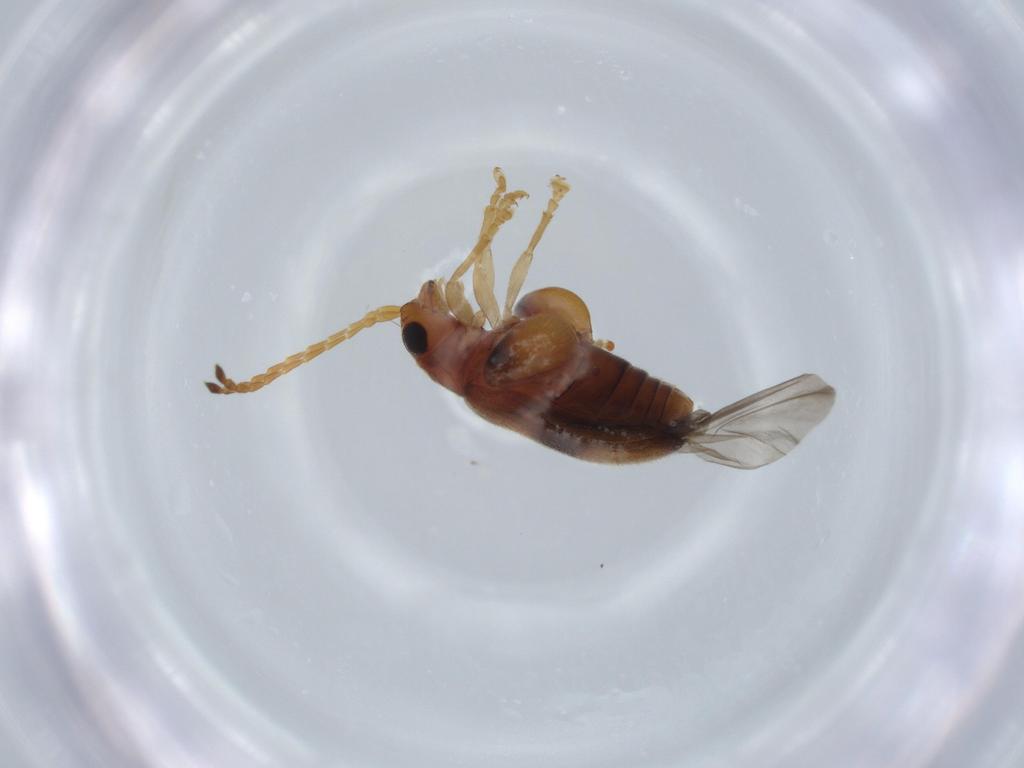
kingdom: Animalia
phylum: Arthropoda
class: Insecta
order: Coleoptera
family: Chrysomelidae
